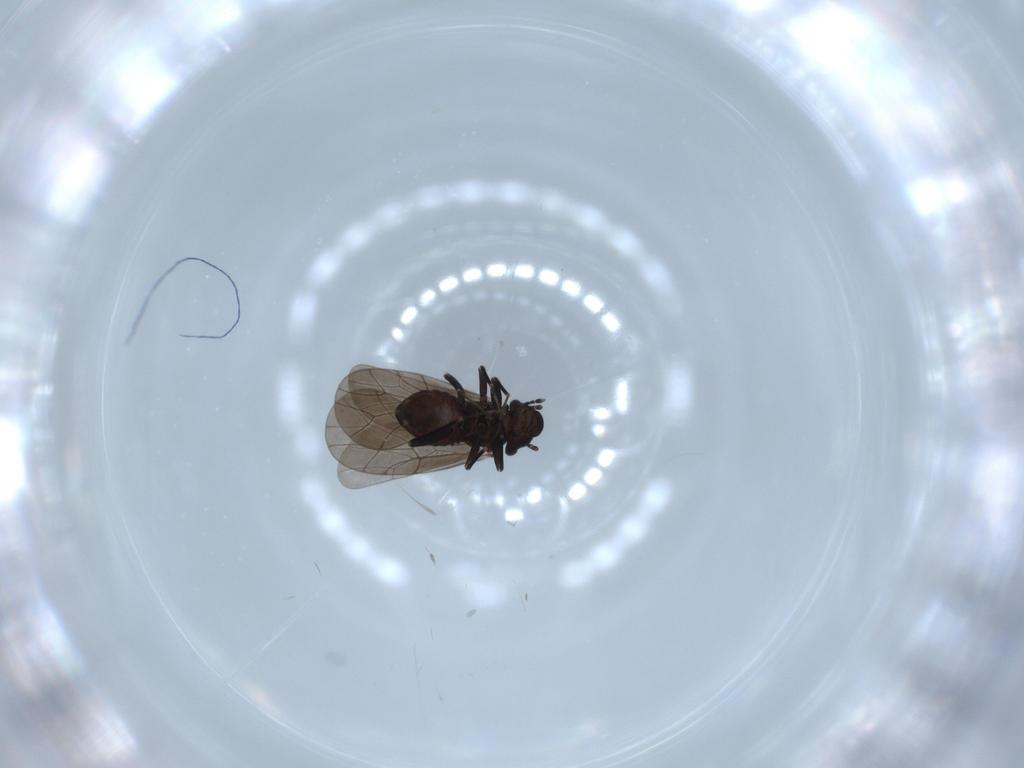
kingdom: Animalia
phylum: Arthropoda
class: Insecta
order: Psocodea
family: Lepidopsocidae
